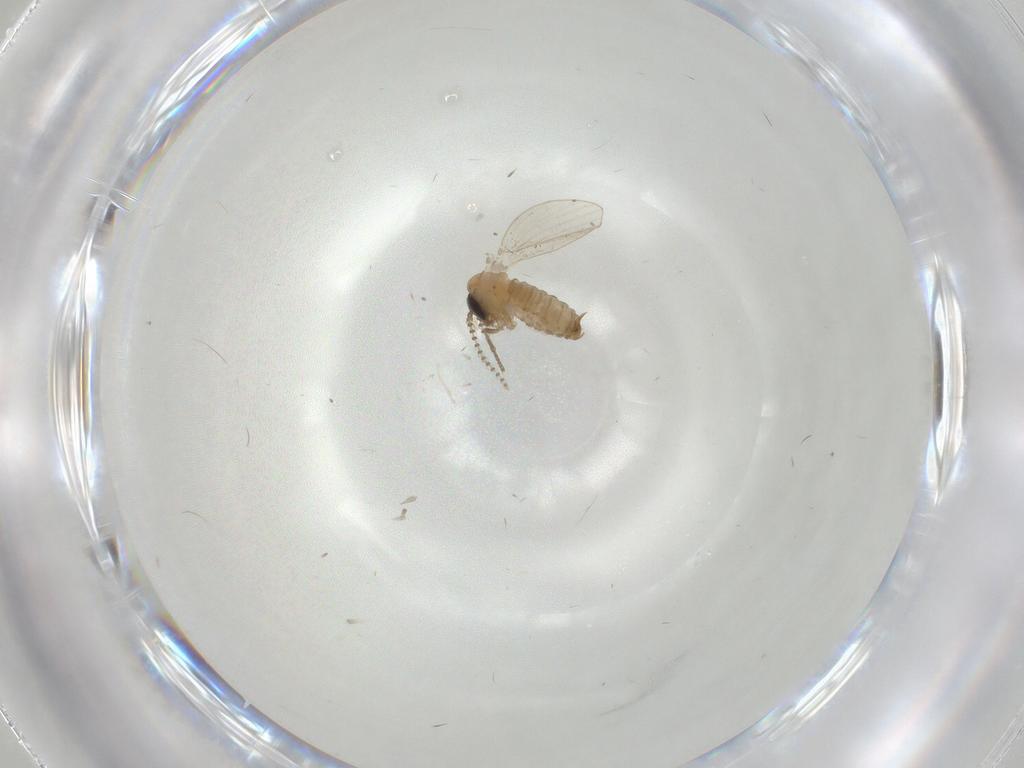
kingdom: Animalia
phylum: Arthropoda
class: Insecta
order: Diptera
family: Psychodidae
